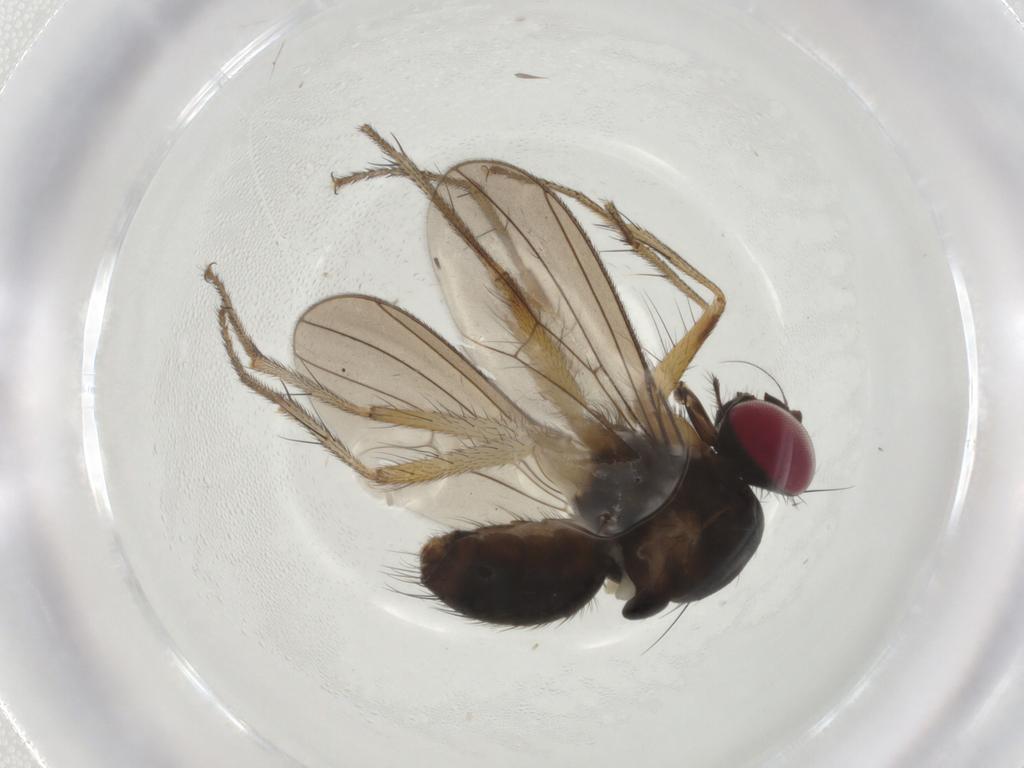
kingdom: Animalia
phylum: Arthropoda
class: Insecta
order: Diptera
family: Anthomyiidae
